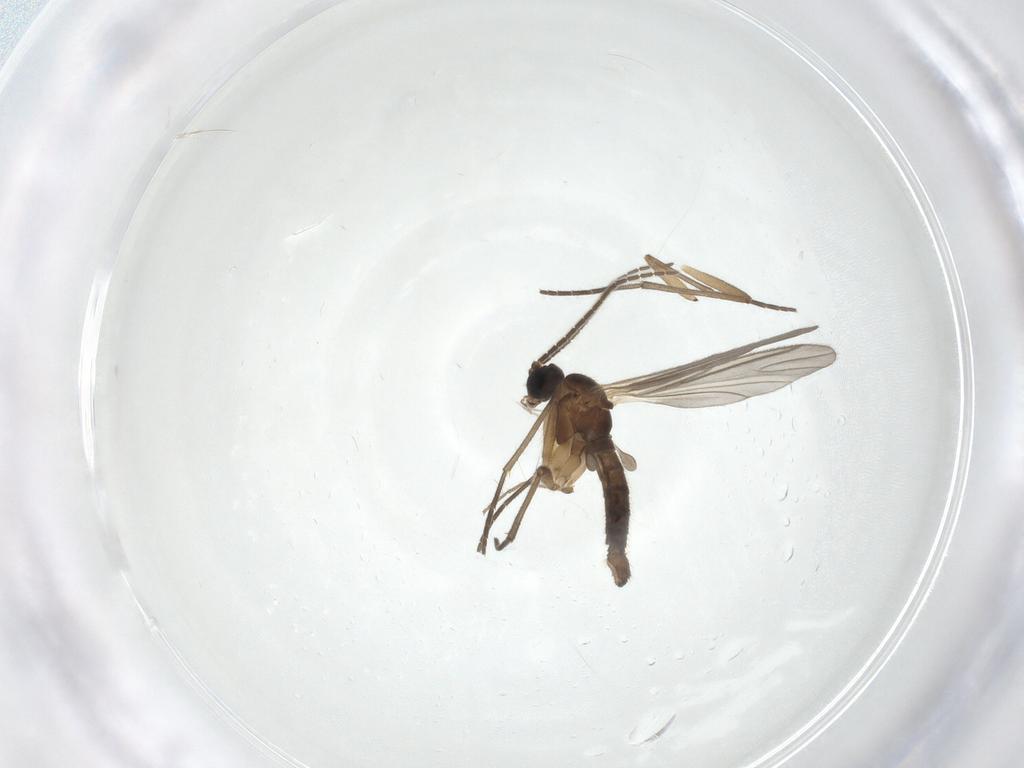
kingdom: Animalia
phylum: Arthropoda
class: Insecta
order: Diptera
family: Sciaridae
